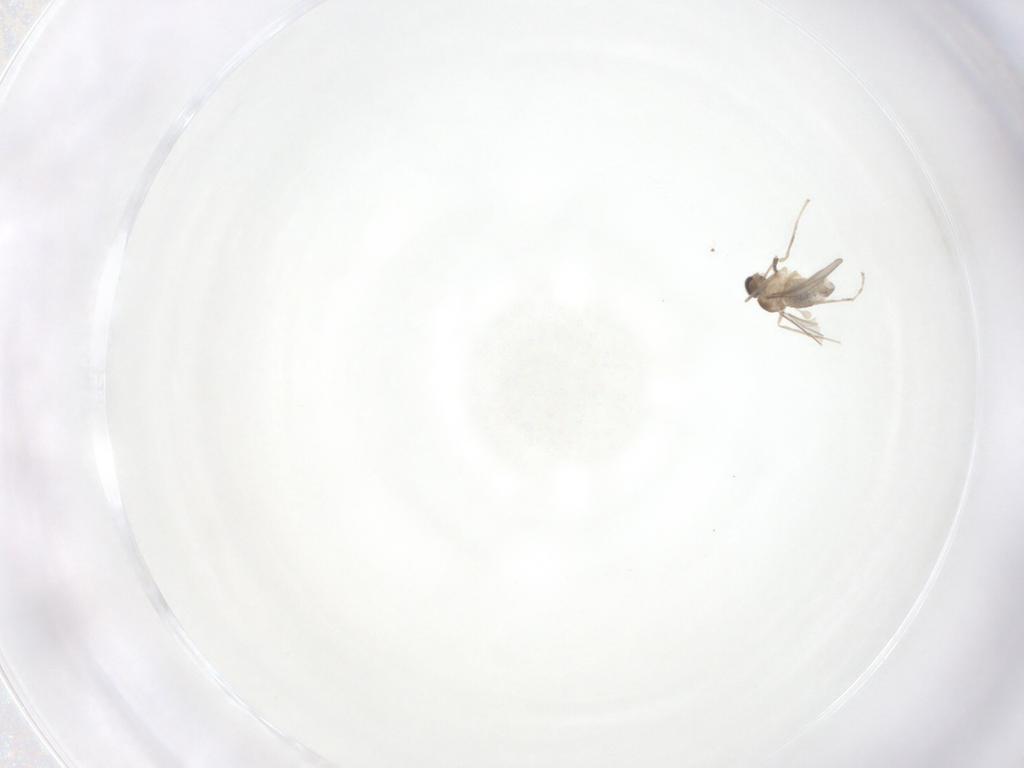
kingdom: Animalia
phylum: Arthropoda
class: Insecta
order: Diptera
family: Cecidomyiidae
